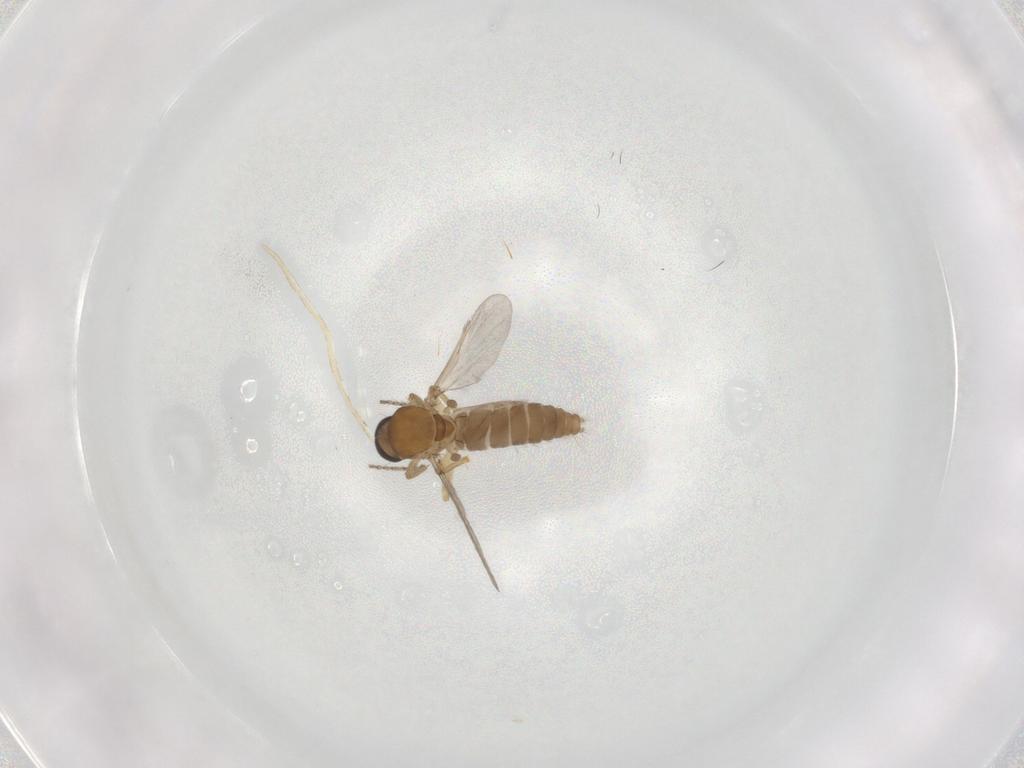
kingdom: Animalia
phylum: Arthropoda
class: Insecta
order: Diptera
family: Ceratopogonidae
